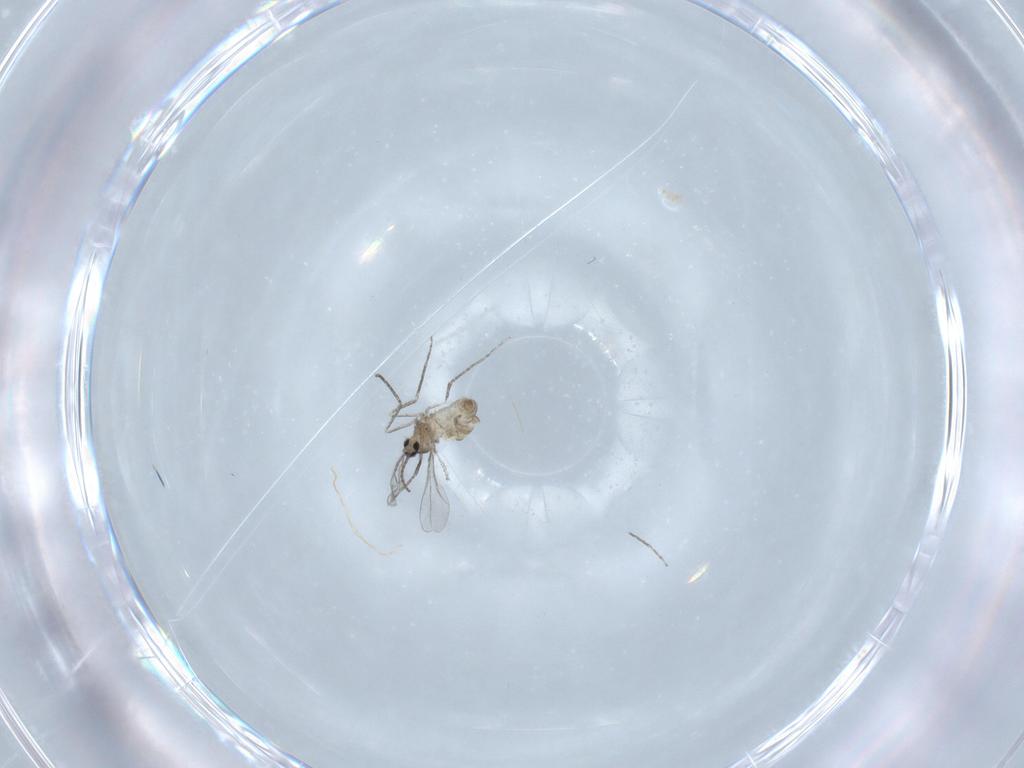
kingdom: Animalia
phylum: Arthropoda
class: Insecta
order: Diptera
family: Cecidomyiidae
